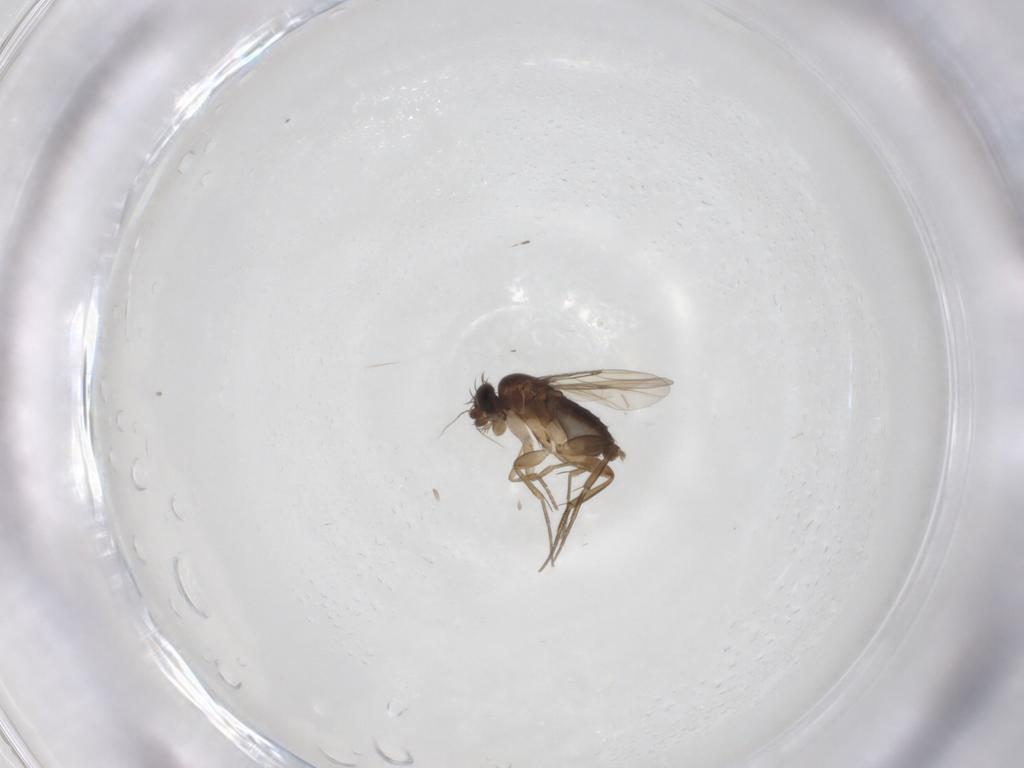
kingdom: Animalia
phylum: Arthropoda
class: Insecta
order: Diptera
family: Phoridae
